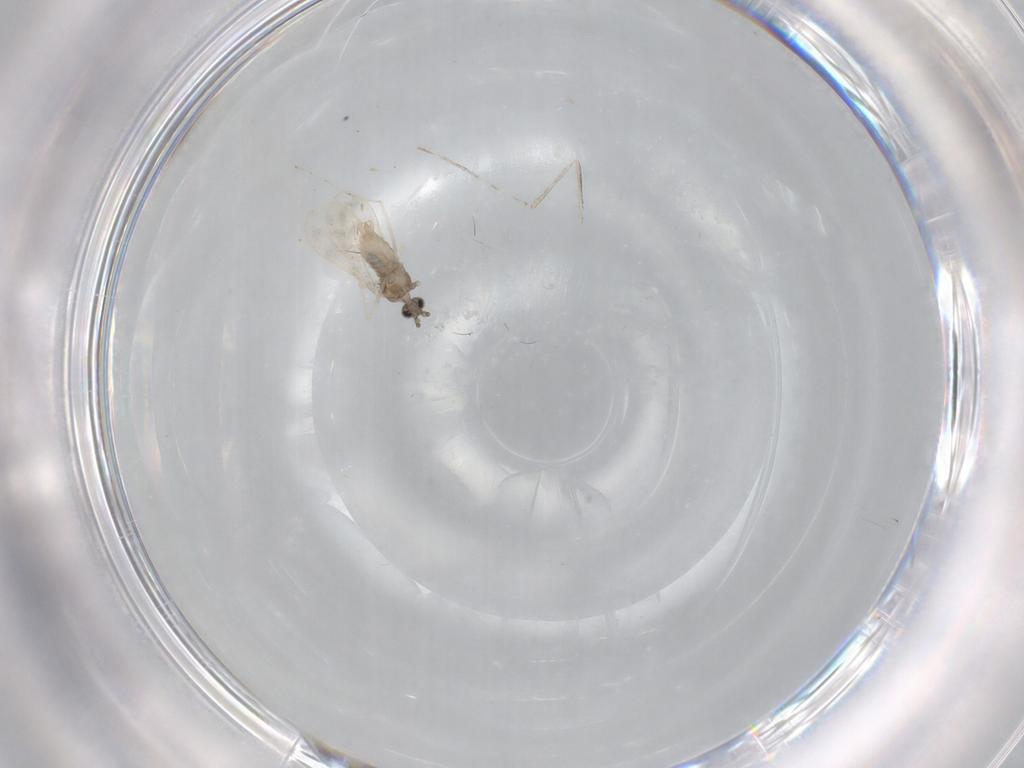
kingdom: Animalia
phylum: Arthropoda
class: Insecta
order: Diptera
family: Cecidomyiidae
